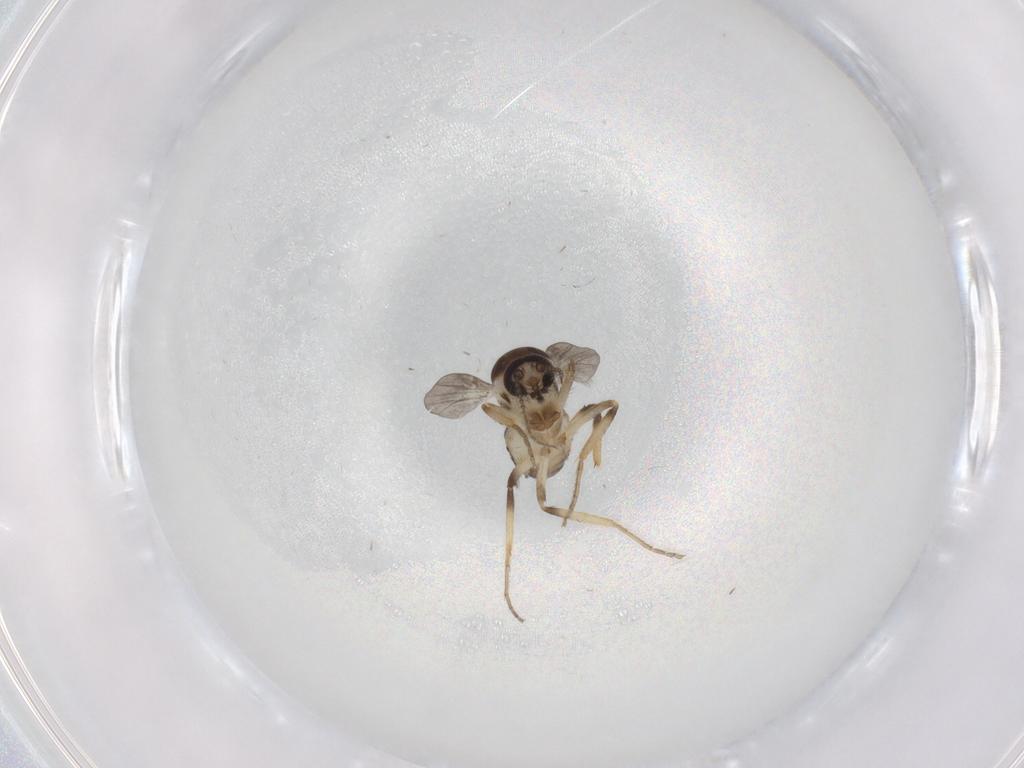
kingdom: Animalia
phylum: Arthropoda
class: Insecta
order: Diptera
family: Ceratopogonidae
